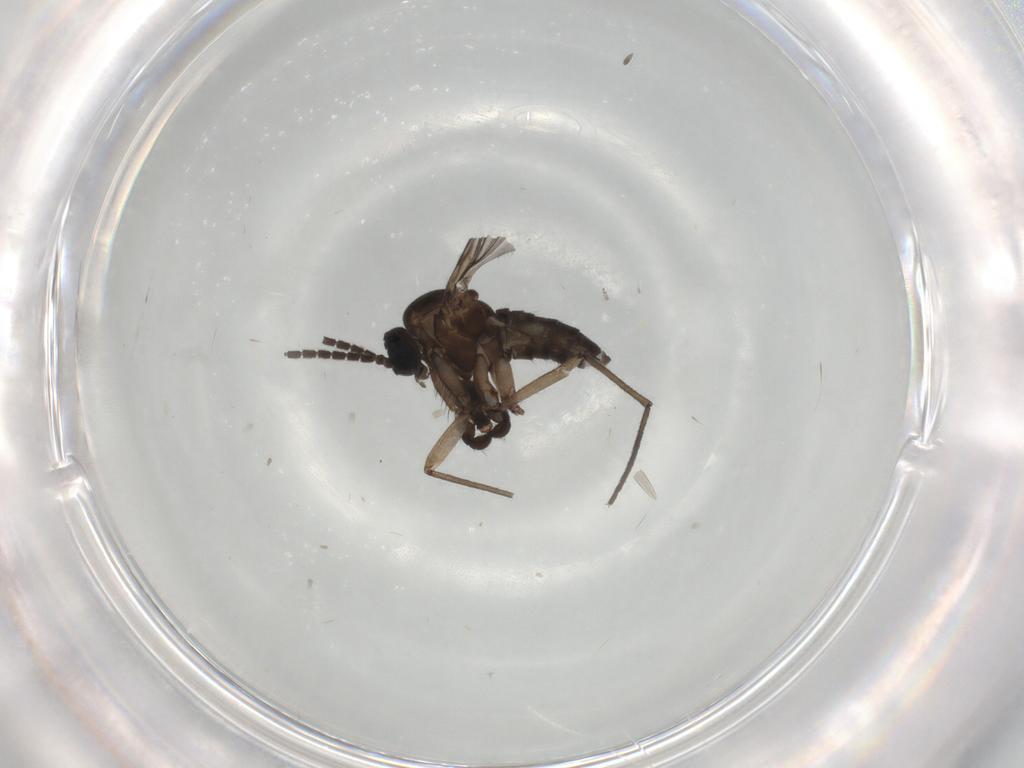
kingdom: Animalia
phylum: Arthropoda
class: Insecta
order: Diptera
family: Sciaridae
